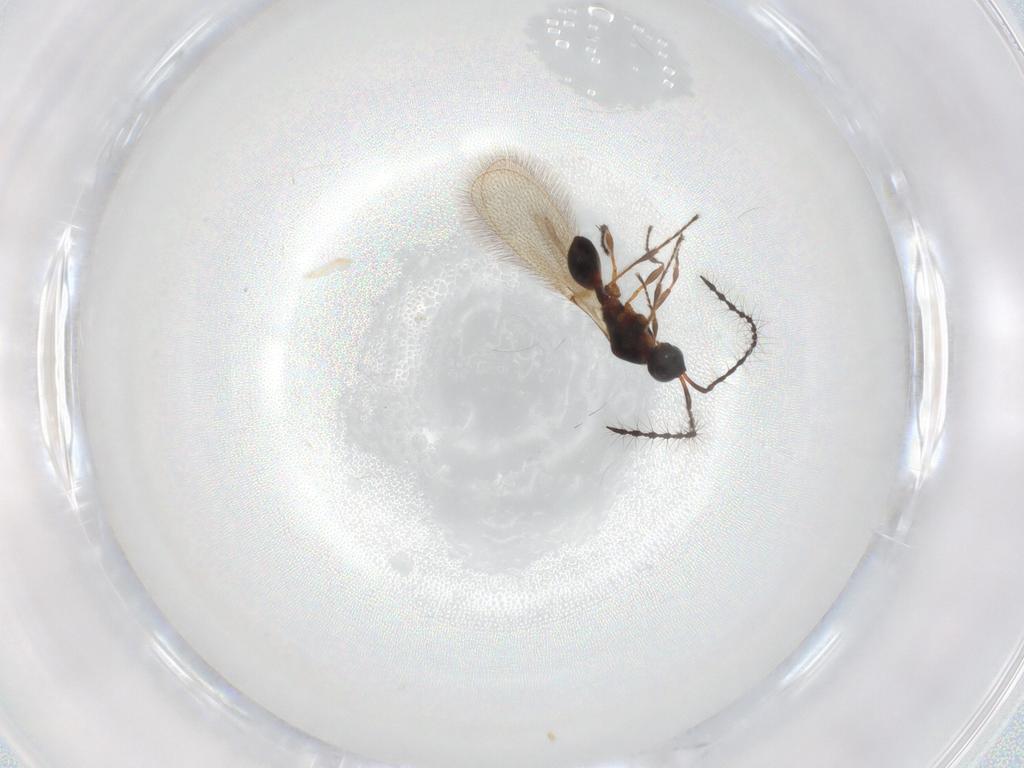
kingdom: Animalia
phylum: Arthropoda
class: Insecta
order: Hymenoptera
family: Diapriidae
